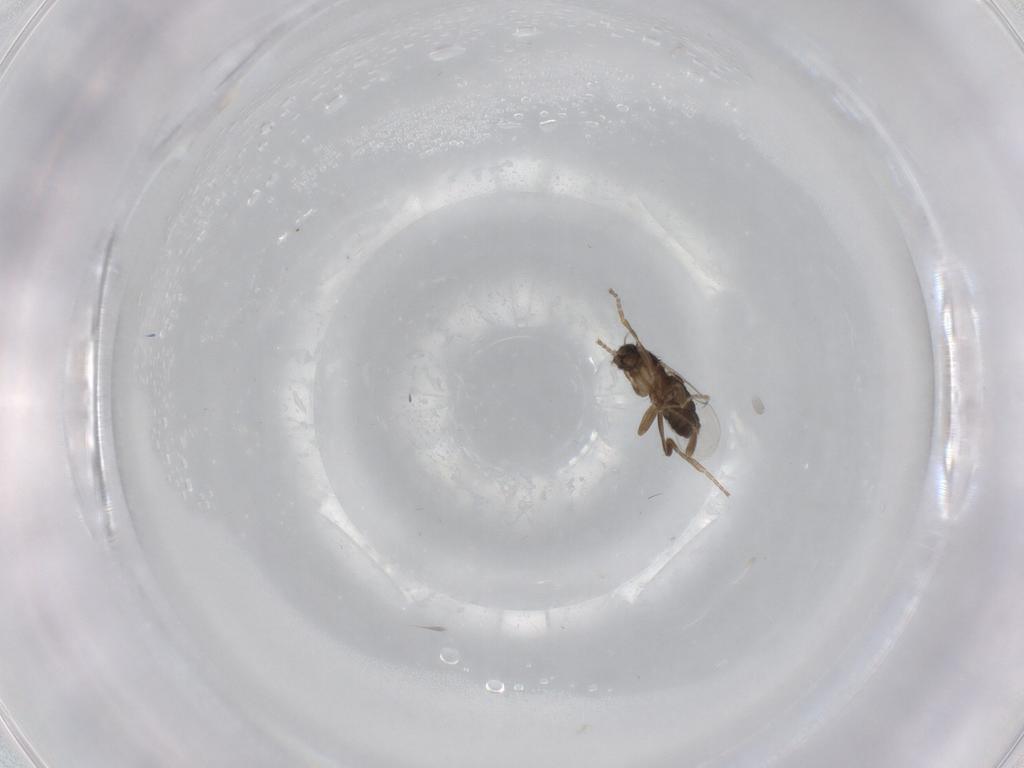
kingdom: Animalia
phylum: Arthropoda
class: Insecta
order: Diptera
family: Phoridae
